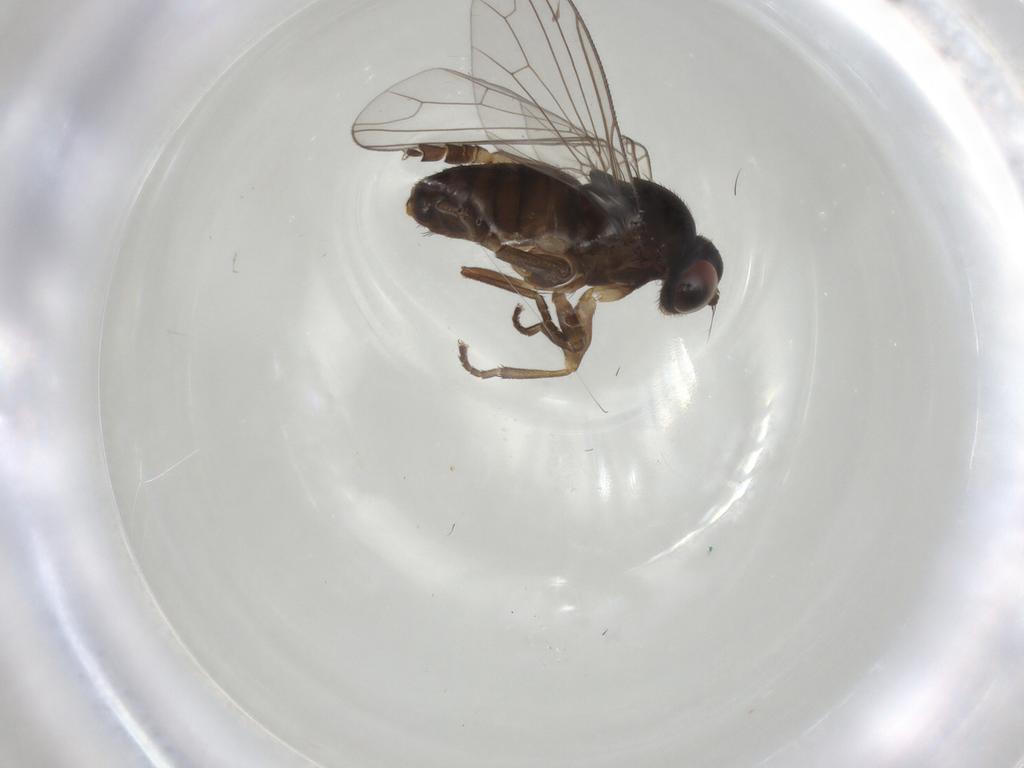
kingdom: Animalia
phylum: Arthropoda
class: Insecta
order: Diptera
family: Platypezidae
